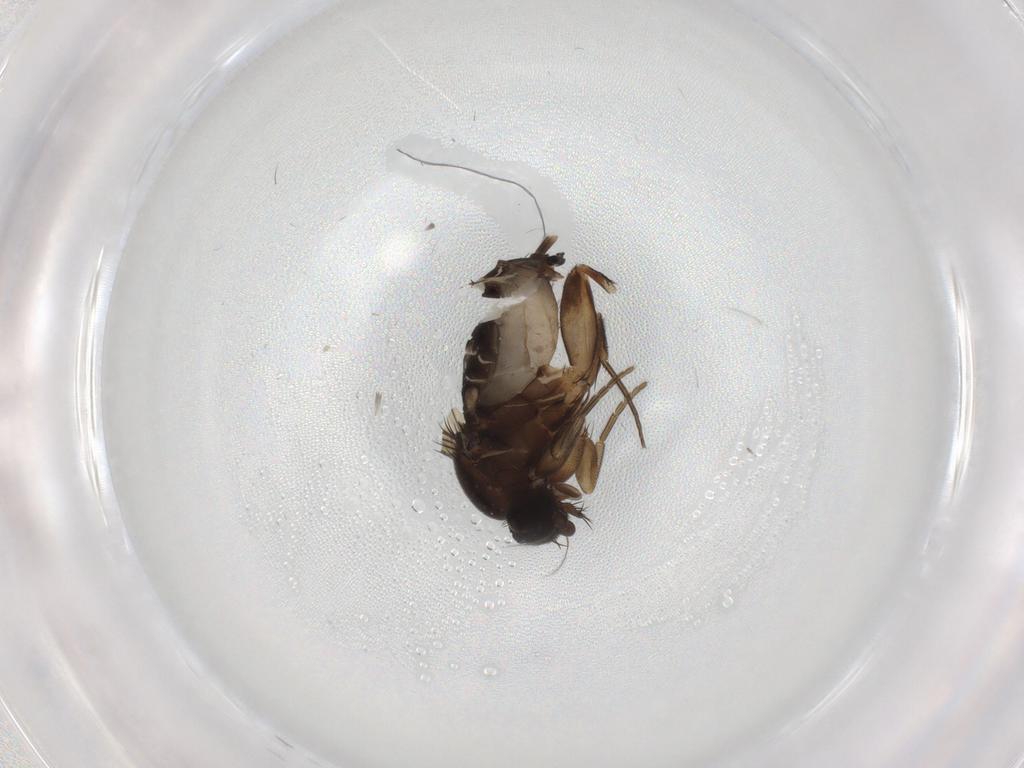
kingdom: Animalia
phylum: Arthropoda
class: Insecta
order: Diptera
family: Phoridae
